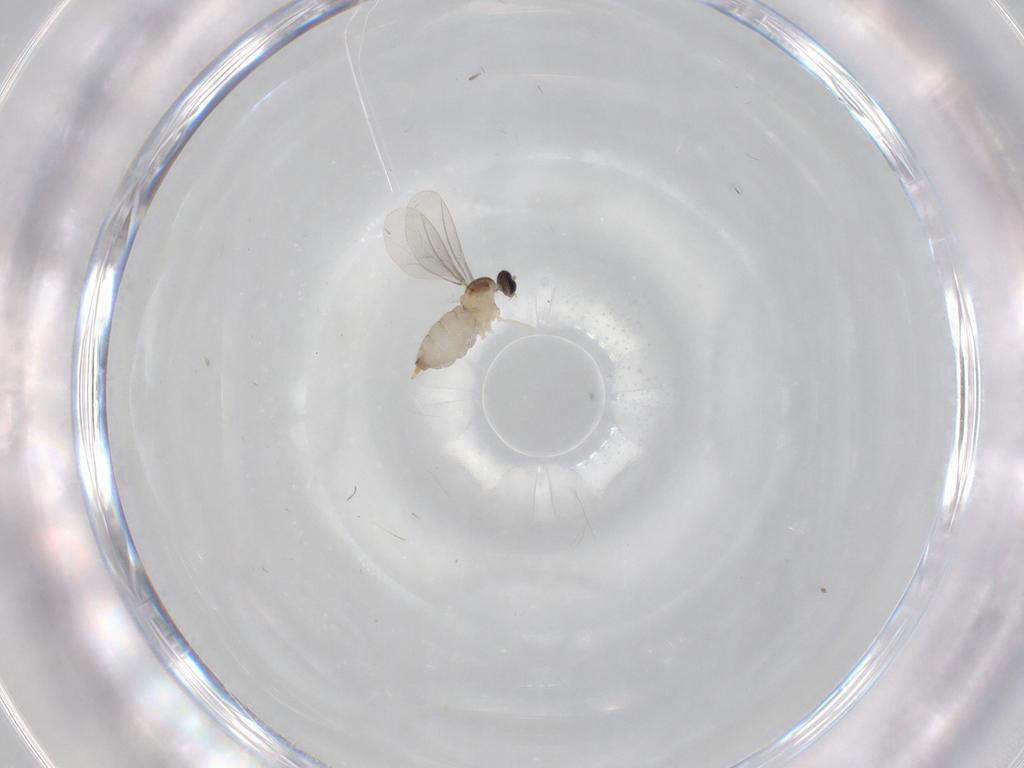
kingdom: Animalia
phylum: Arthropoda
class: Insecta
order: Diptera
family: Cecidomyiidae
